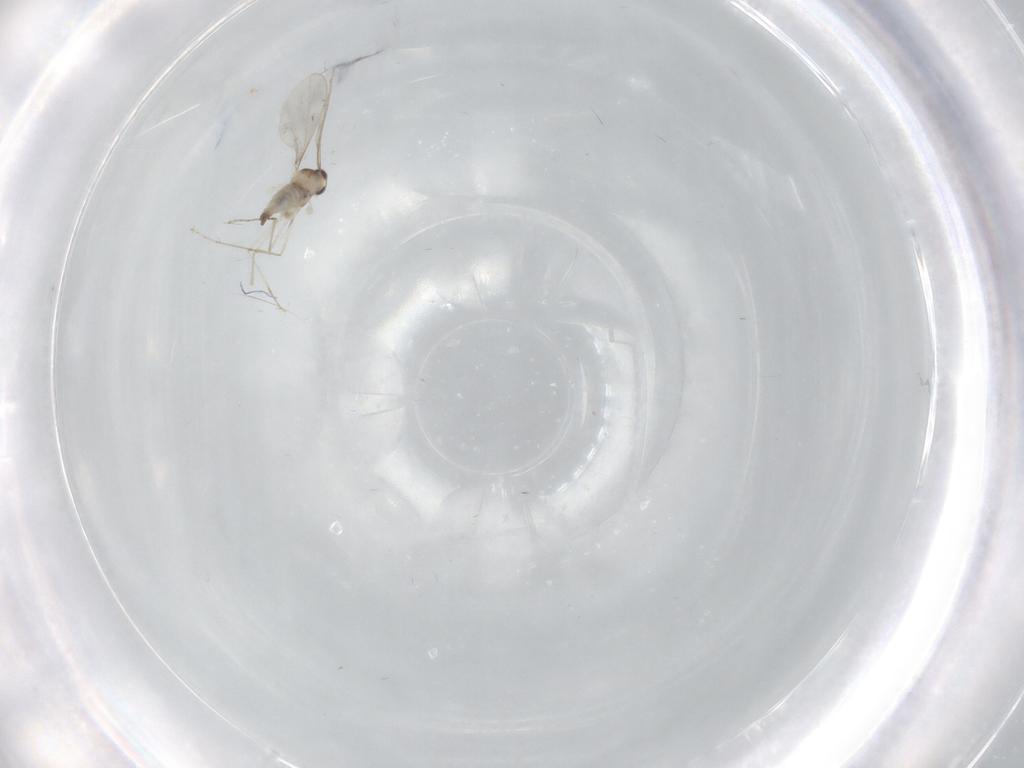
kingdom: Animalia
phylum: Arthropoda
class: Insecta
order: Diptera
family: Cecidomyiidae
